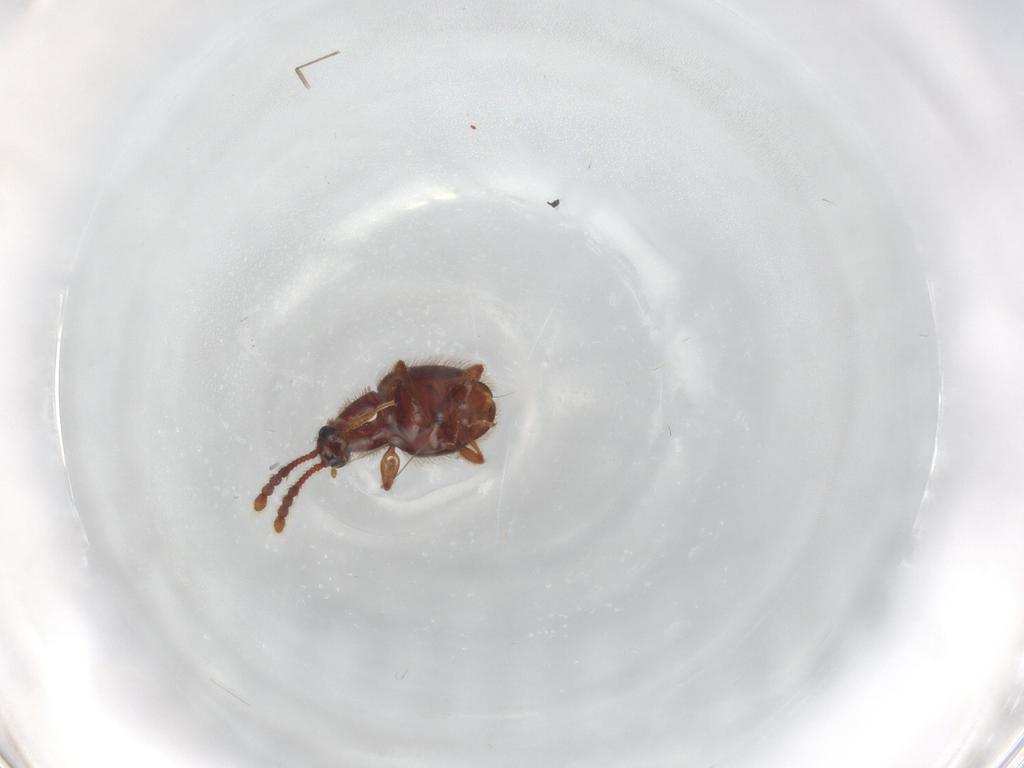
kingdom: Animalia
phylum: Arthropoda
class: Insecta
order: Coleoptera
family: Staphylinidae
